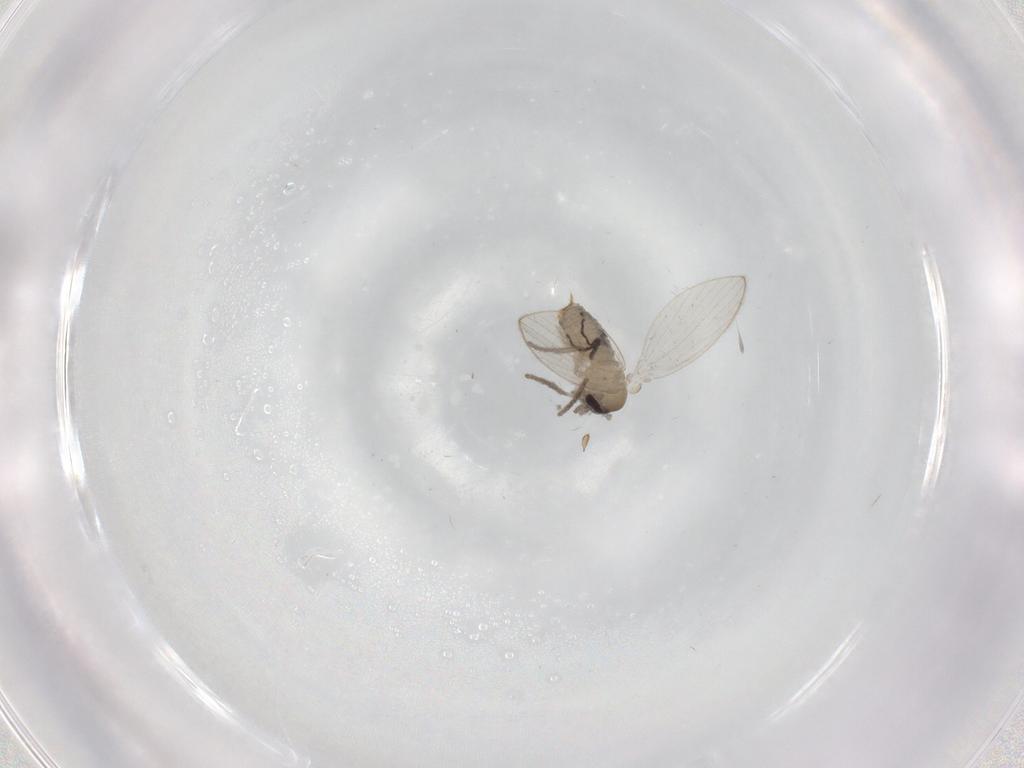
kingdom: Animalia
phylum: Arthropoda
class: Insecta
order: Diptera
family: Psychodidae
